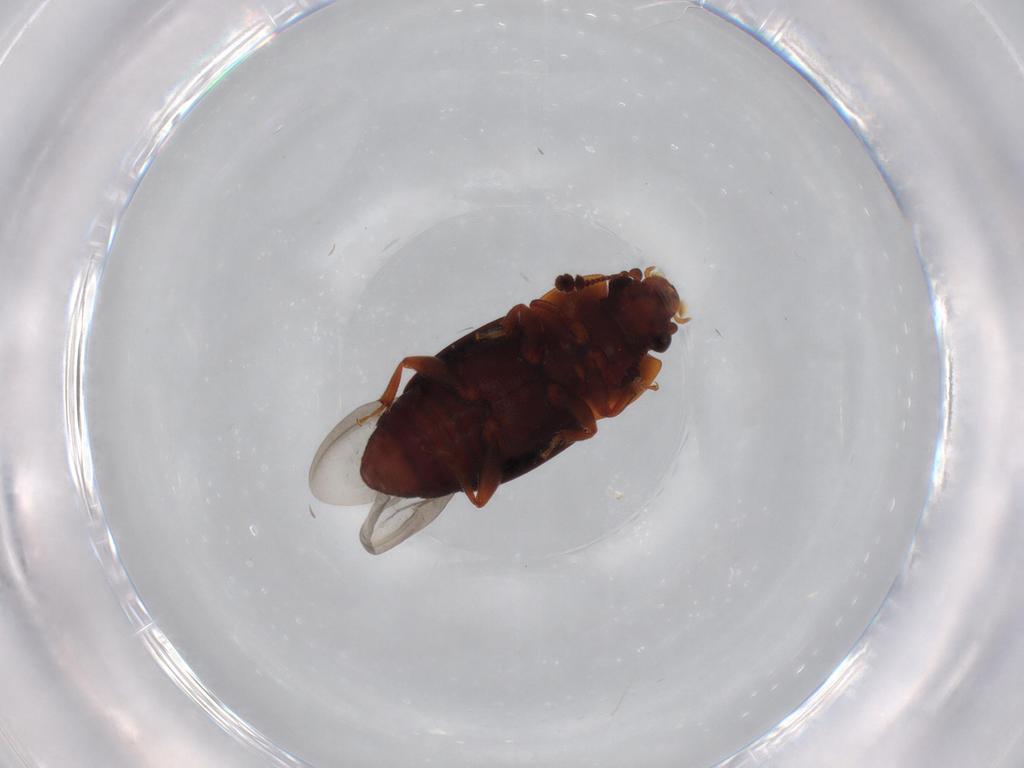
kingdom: Animalia
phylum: Arthropoda
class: Insecta
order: Coleoptera
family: Nitidulidae
